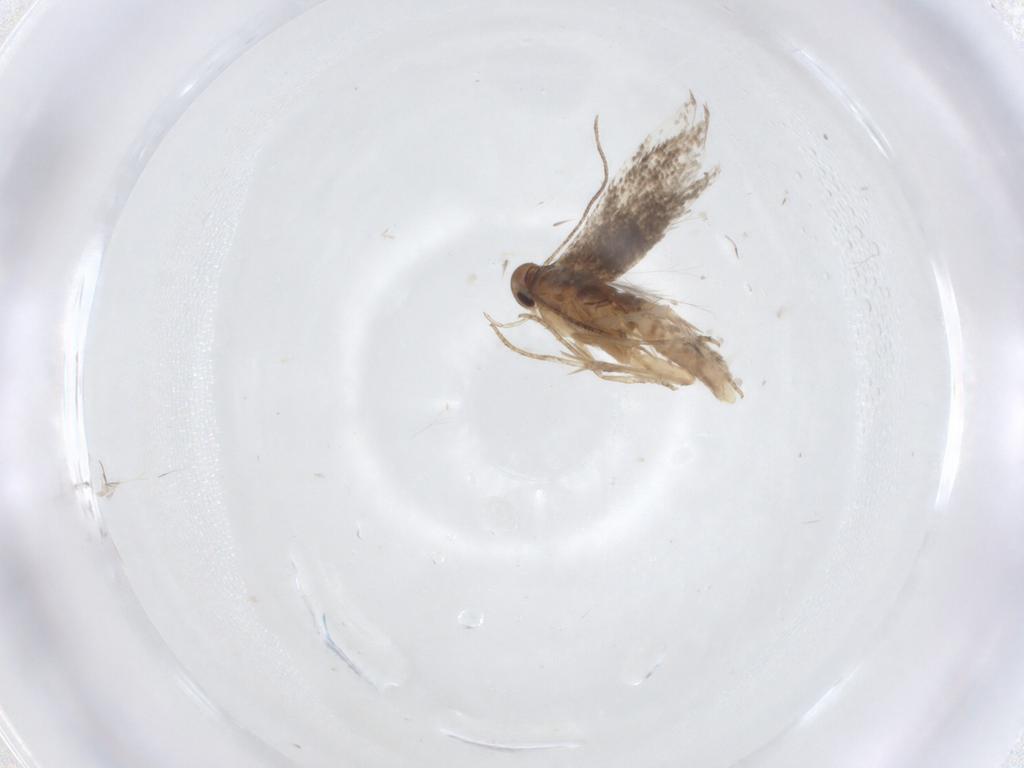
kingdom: Animalia
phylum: Arthropoda
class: Insecta
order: Lepidoptera
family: Elachistidae
